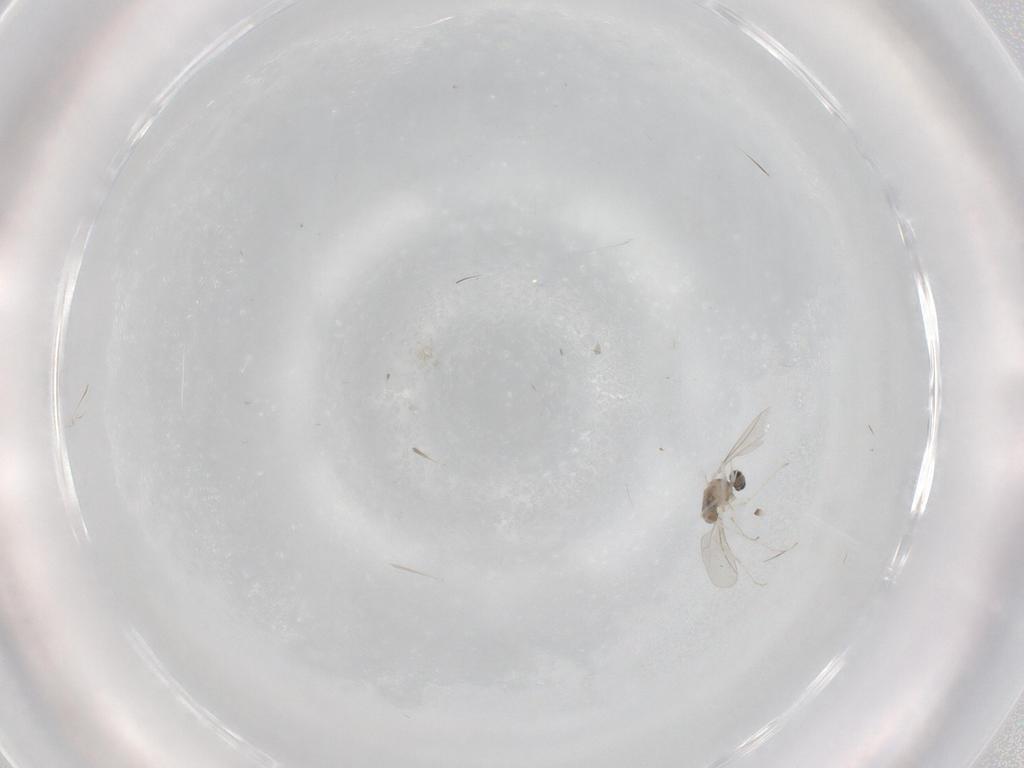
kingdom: Animalia
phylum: Arthropoda
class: Insecta
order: Diptera
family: Cecidomyiidae
